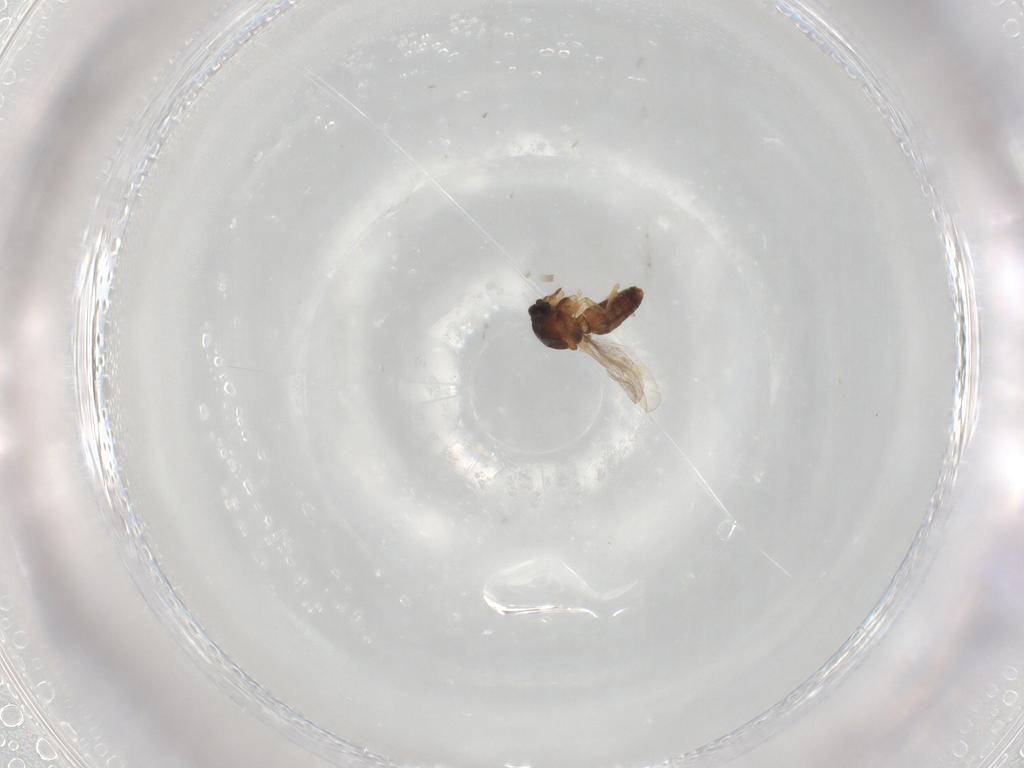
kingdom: Animalia
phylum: Arthropoda
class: Insecta
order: Diptera
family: Ceratopogonidae
